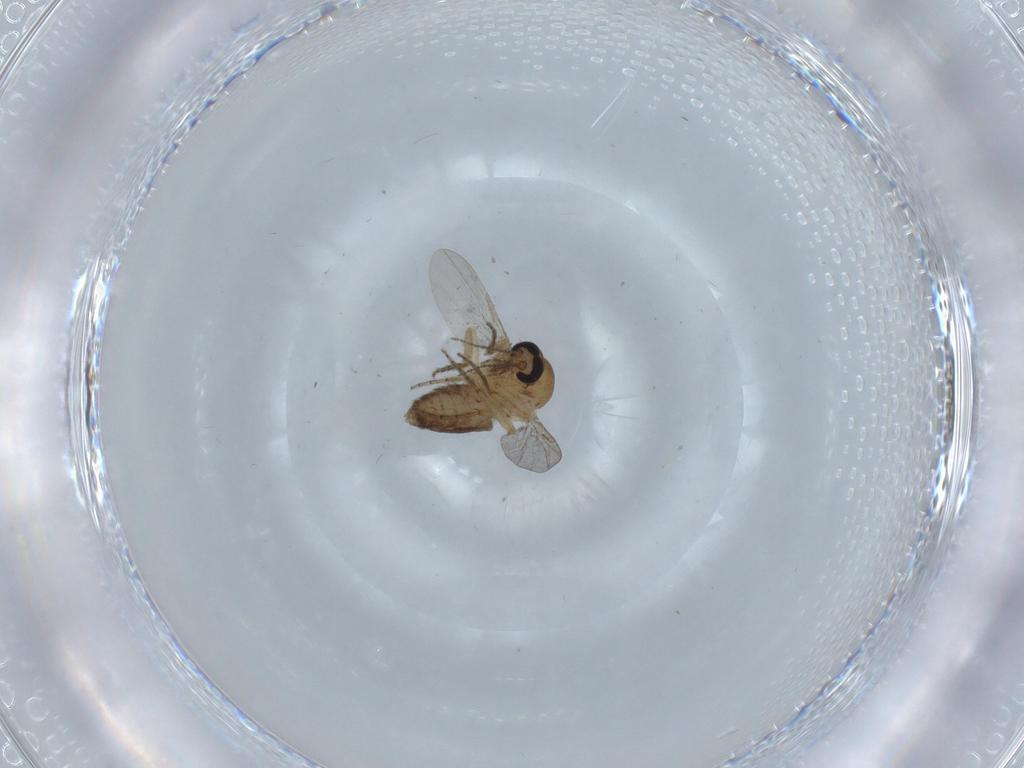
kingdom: Animalia
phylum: Arthropoda
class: Insecta
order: Diptera
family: Ceratopogonidae
